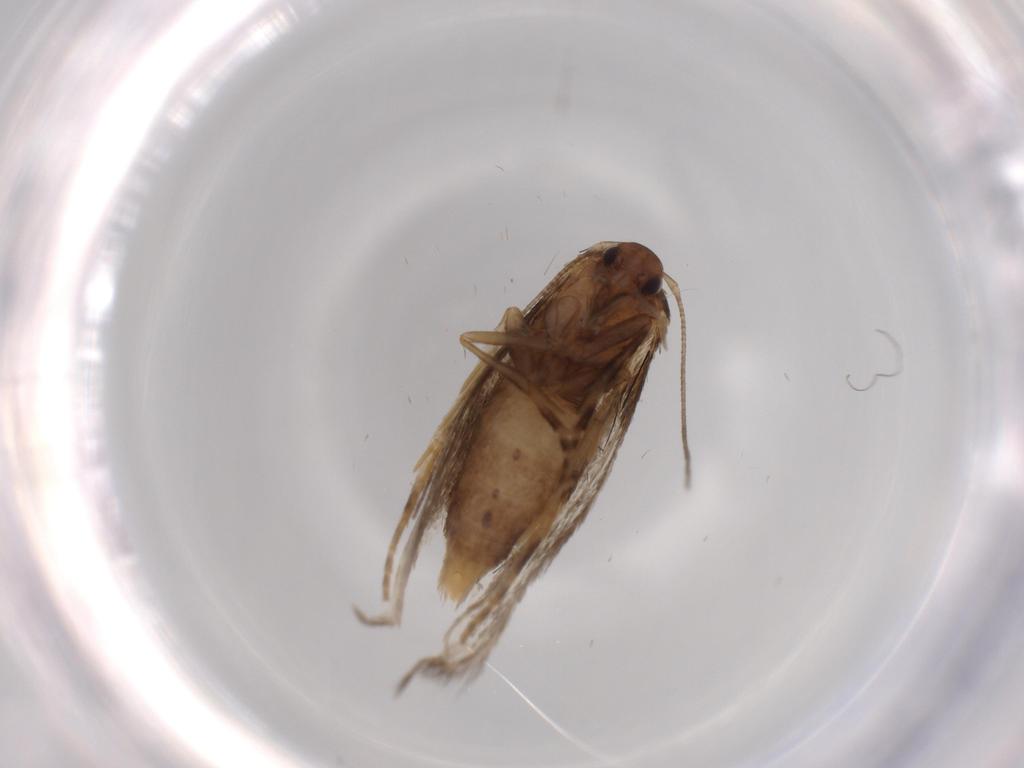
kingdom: Animalia
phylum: Arthropoda
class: Insecta
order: Lepidoptera
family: Elachistidae
